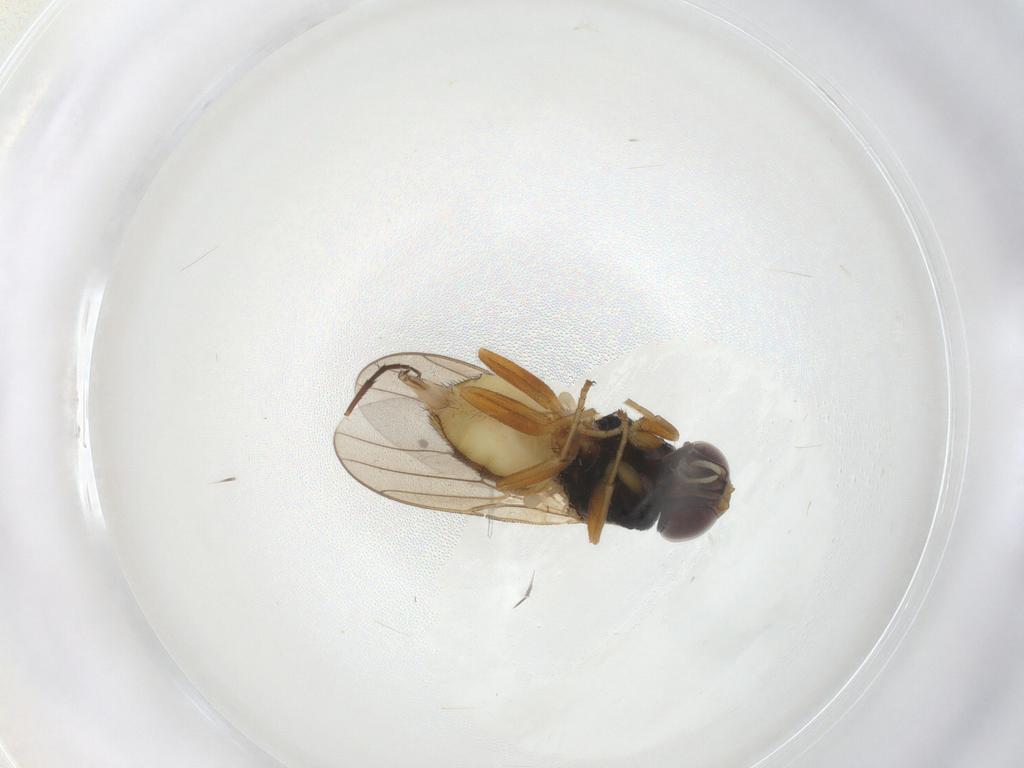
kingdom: Animalia
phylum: Arthropoda
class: Insecta
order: Diptera
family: Chloropidae
